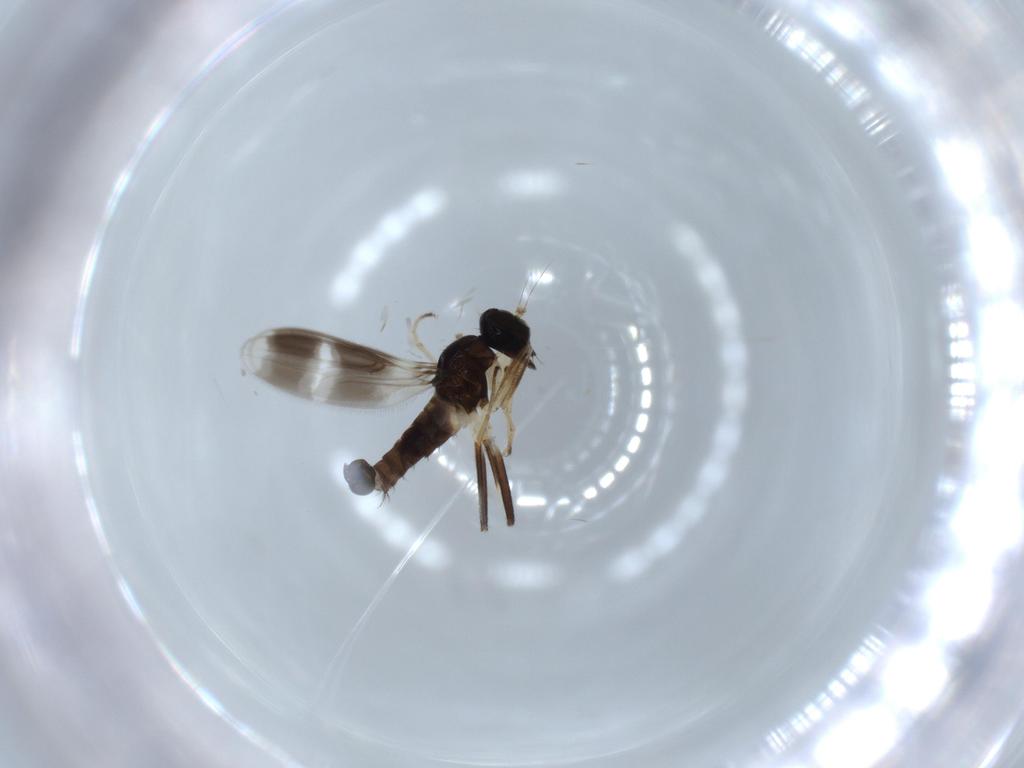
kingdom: Animalia
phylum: Arthropoda
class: Insecta
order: Diptera
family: Hybotidae
